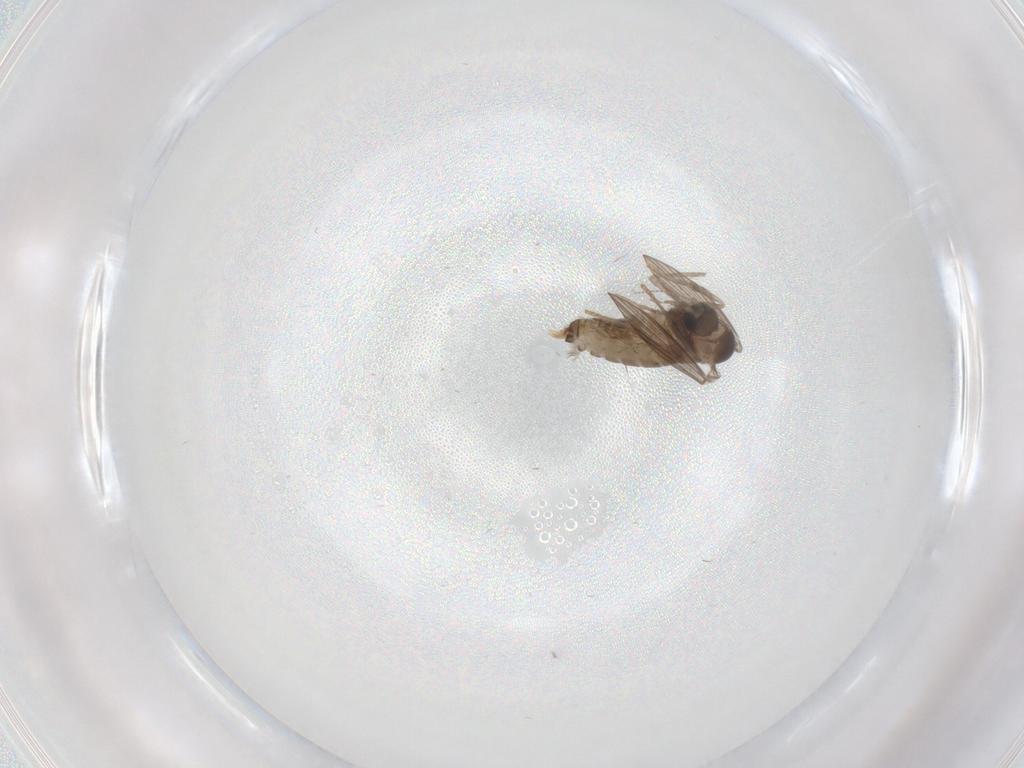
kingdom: Animalia
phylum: Arthropoda
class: Insecta
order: Diptera
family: Psychodidae
